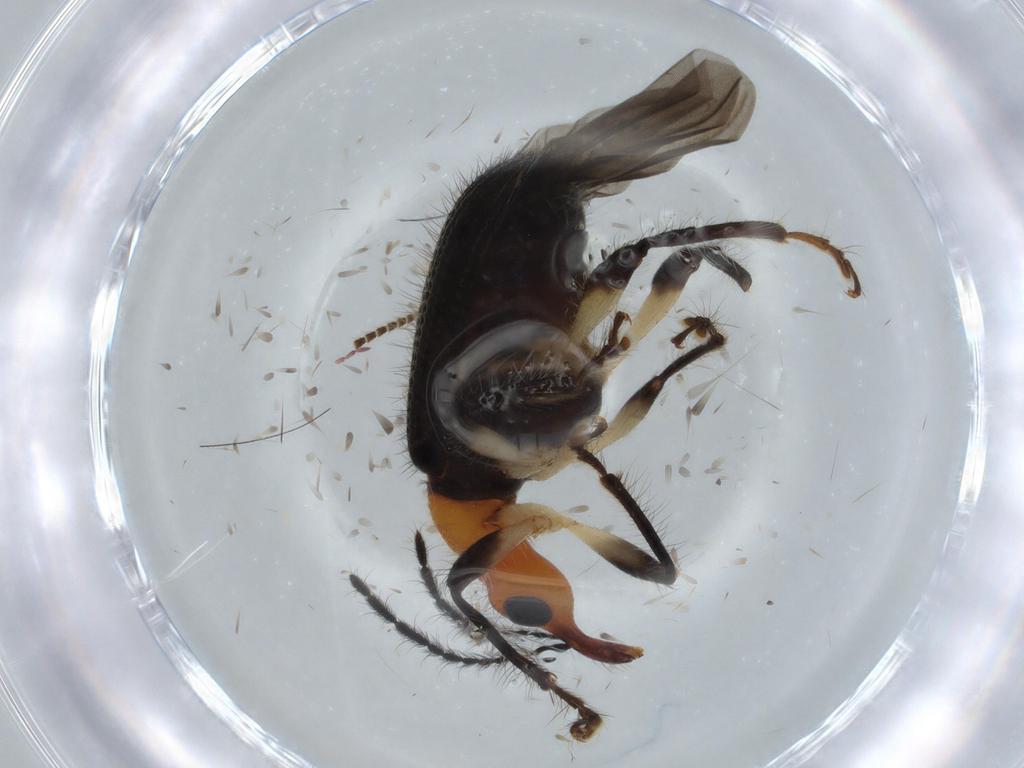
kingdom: Animalia
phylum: Arthropoda
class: Insecta
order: Coleoptera
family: Attelabidae
